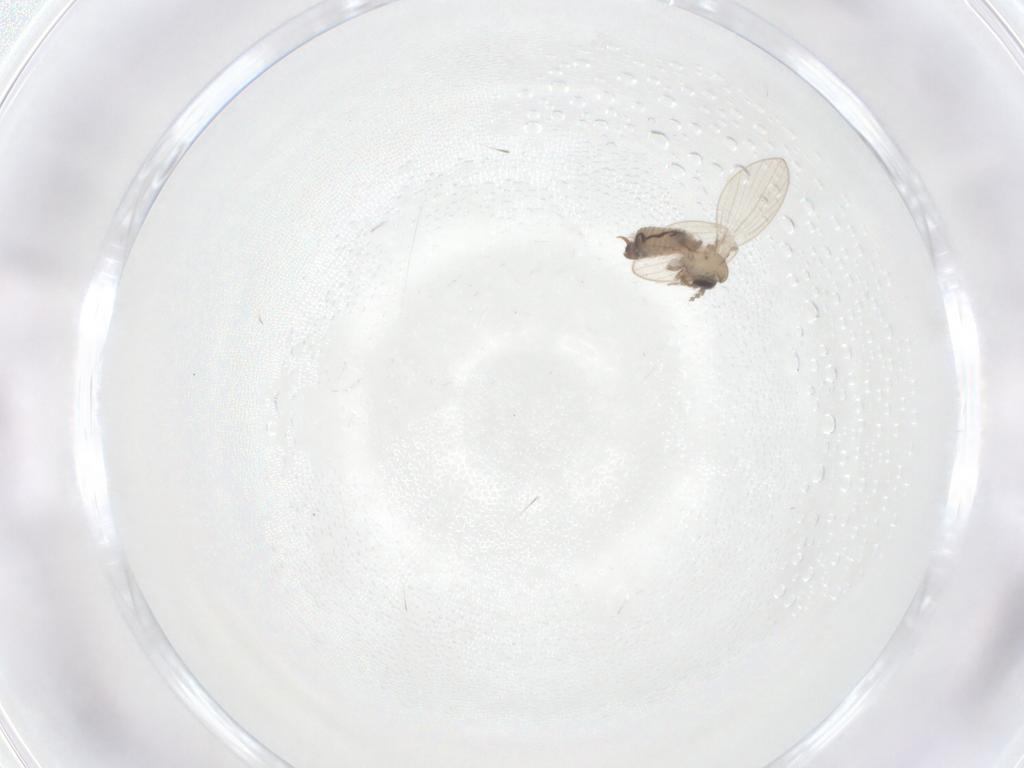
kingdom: Animalia
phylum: Arthropoda
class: Insecta
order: Diptera
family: Psychodidae
